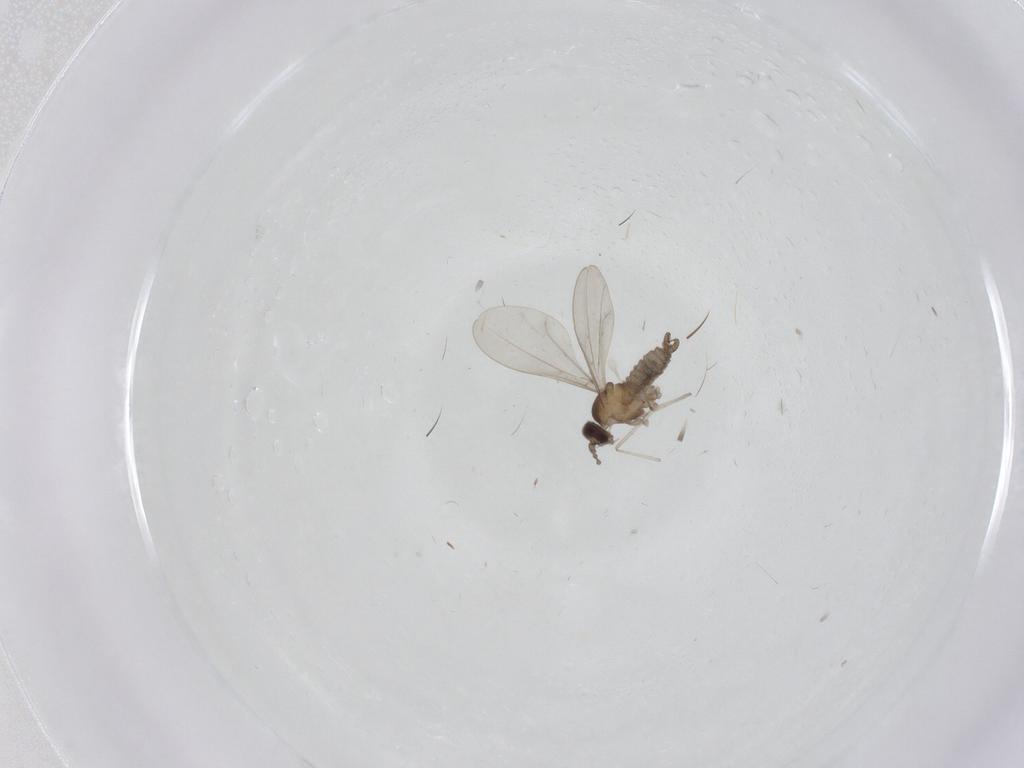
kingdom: Animalia
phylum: Arthropoda
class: Insecta
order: Diptera
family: Cecidomyiidae
